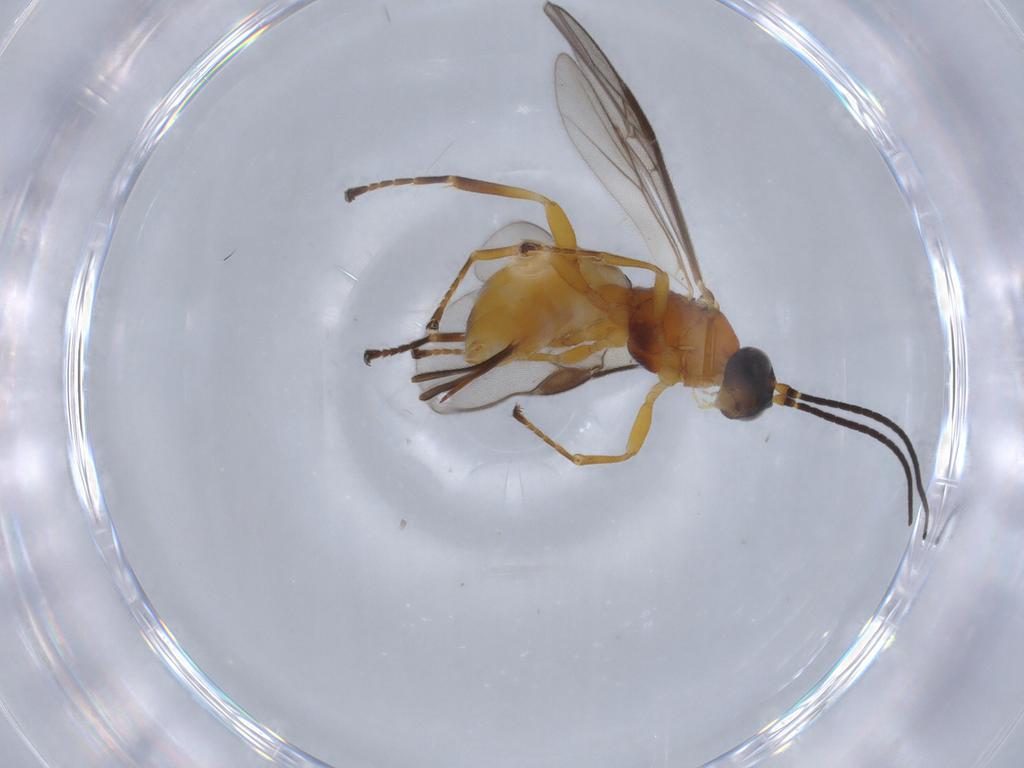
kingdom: Animalia
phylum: Arthropoda
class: Insecta
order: Hymenoptera
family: Braconidae
